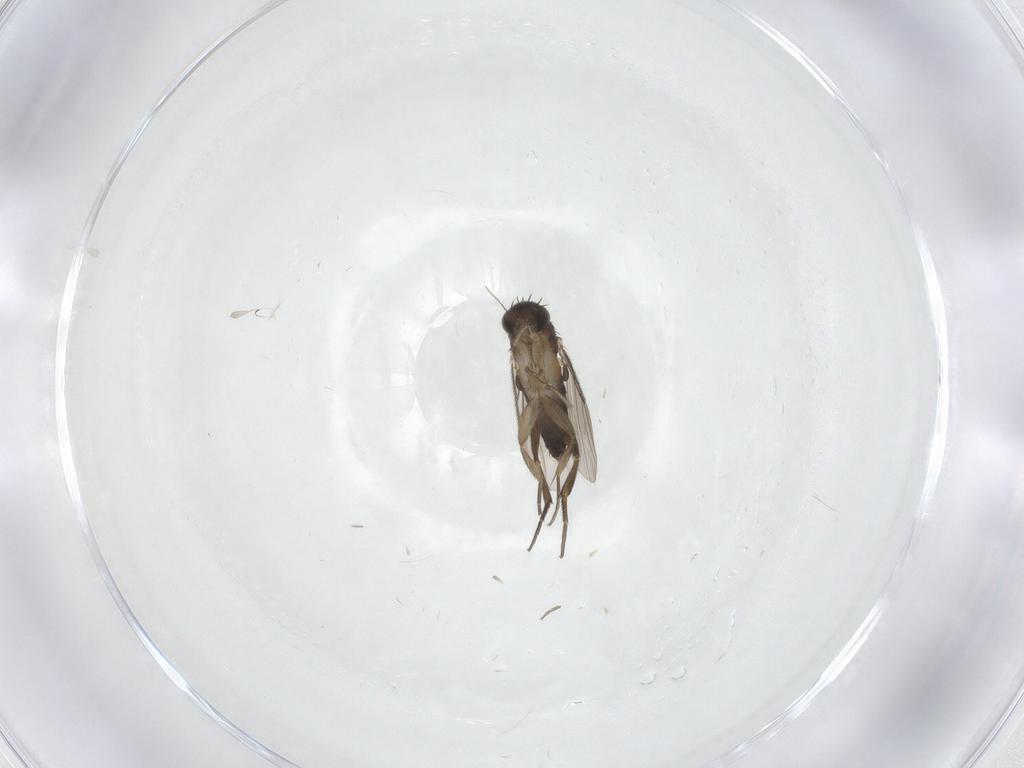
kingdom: Animalia
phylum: Arthropoda
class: Insecta
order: Diptera
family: Phoridae
